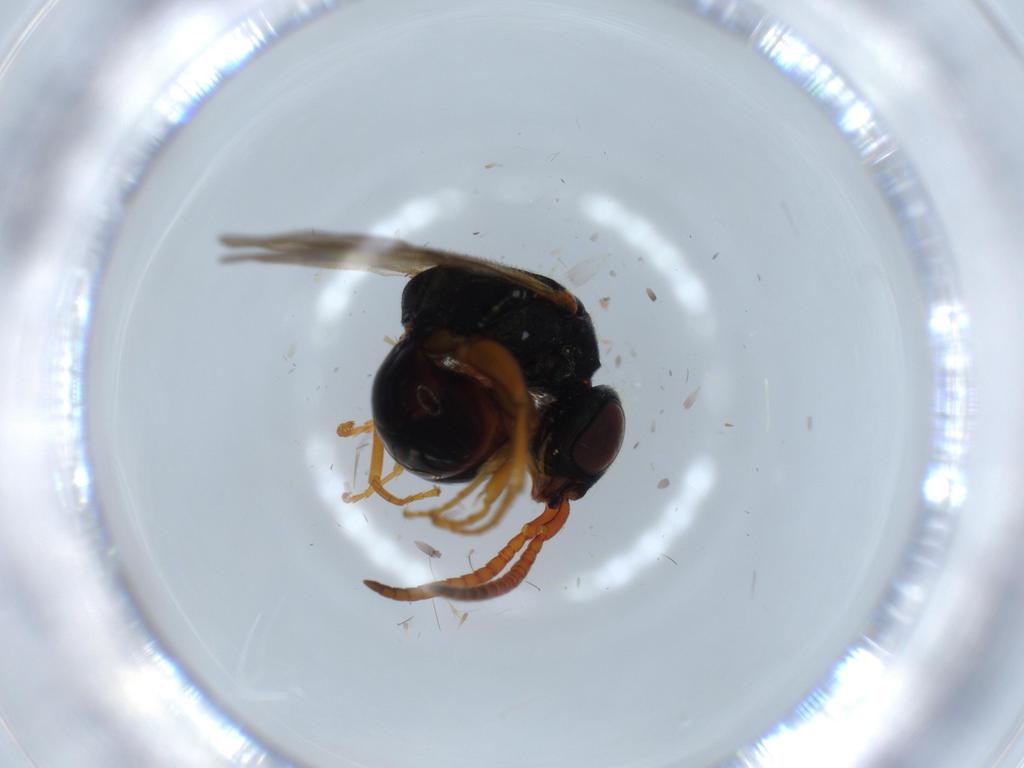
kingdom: Animalia
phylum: Arthropoda
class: Insecta
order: Hymenoptera
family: Bethylidae
